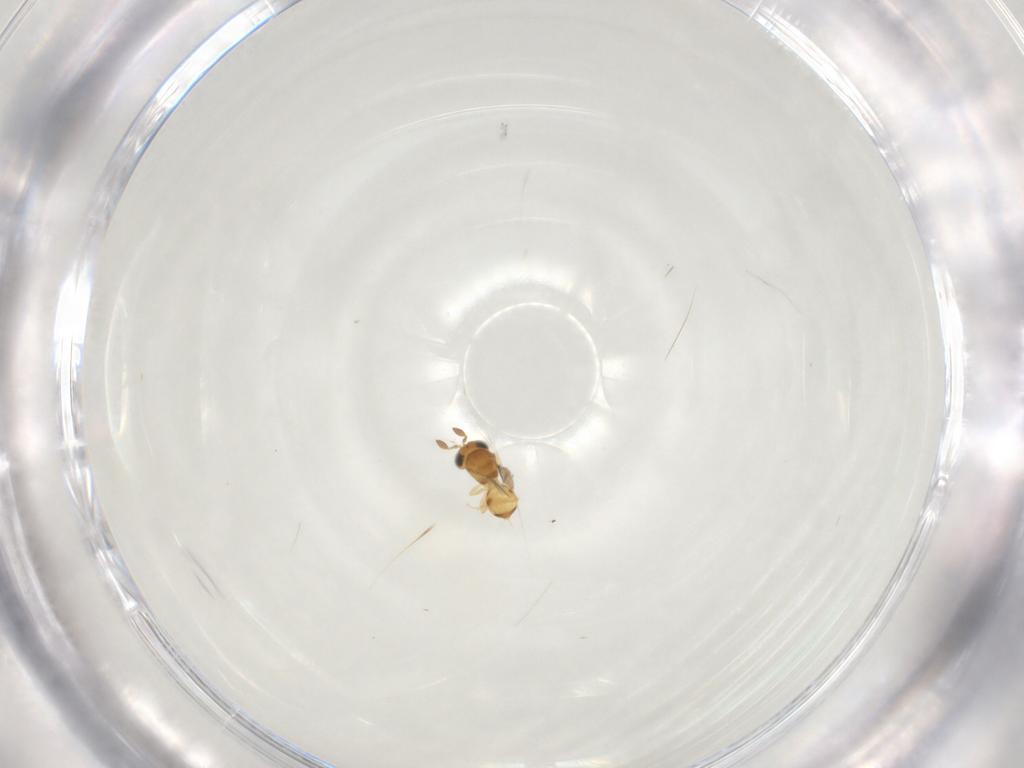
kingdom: Animalia
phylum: Arthropoda
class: Insecta
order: Hymenoptera
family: Scelionidae
